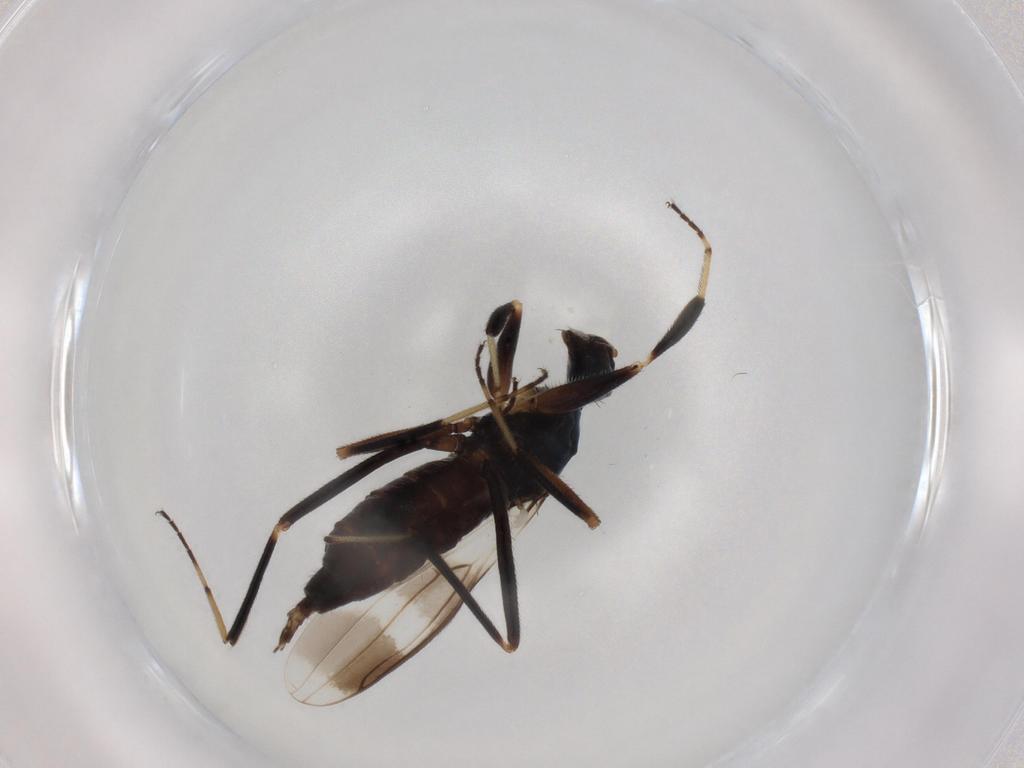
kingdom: Animalia
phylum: Arthropoda
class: Insecta
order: Diptera
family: Hybotidae
